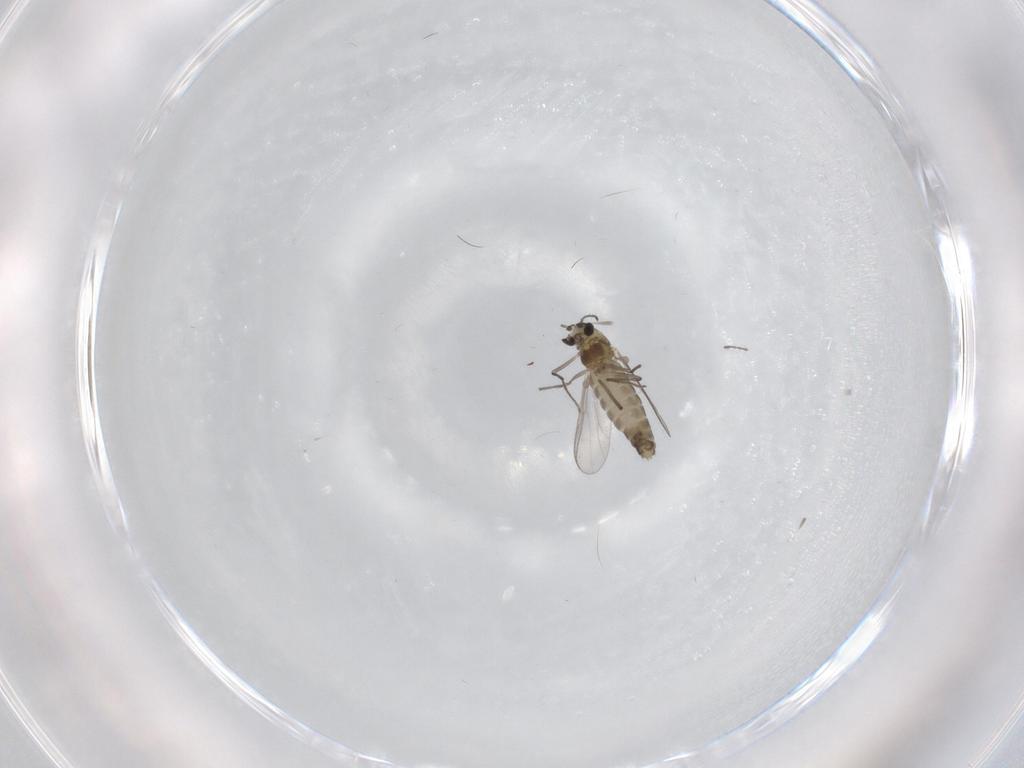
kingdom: Animalia
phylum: Arthropoda
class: Insecta
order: Diptera
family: Chironomidae
